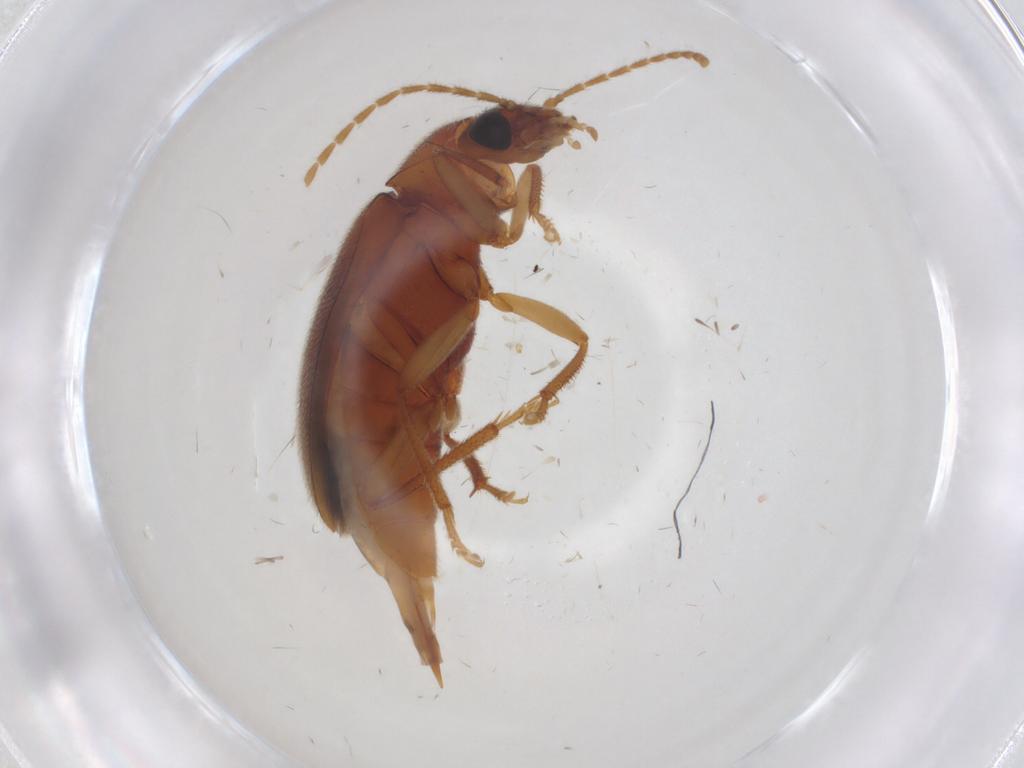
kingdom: Animalia
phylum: Arthropoda
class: Insecta
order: Coleoptera
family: Ptilodactylidae
